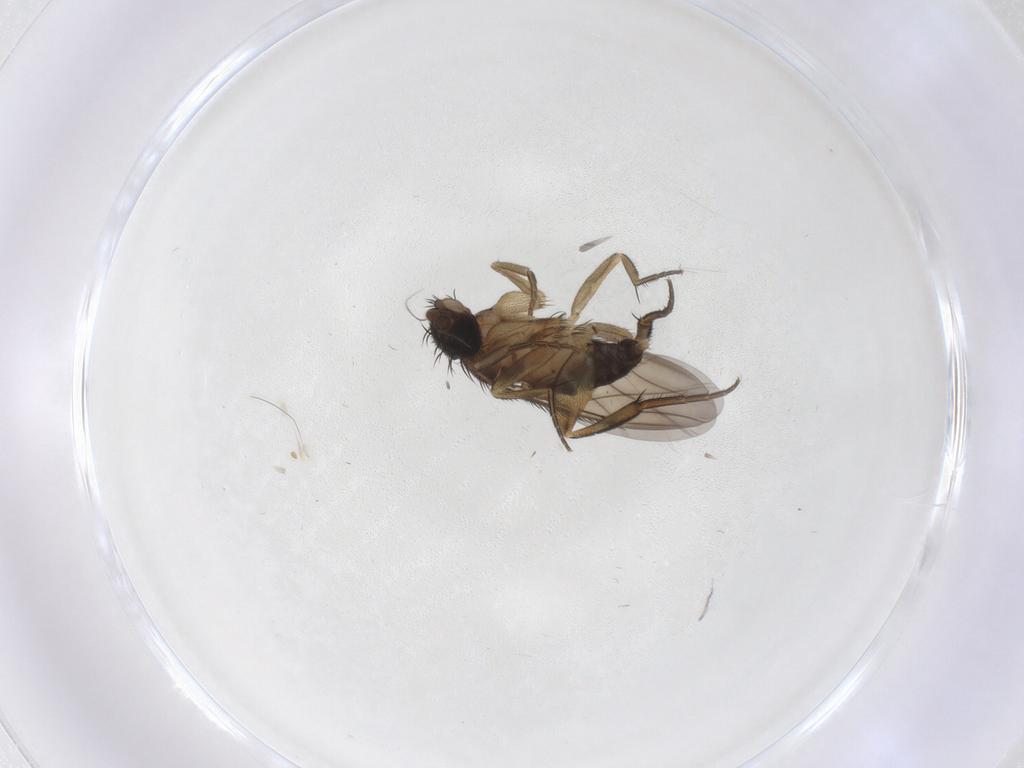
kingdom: Animalia
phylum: Arthropoda
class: Insecta
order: Diptera
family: Phoridae
